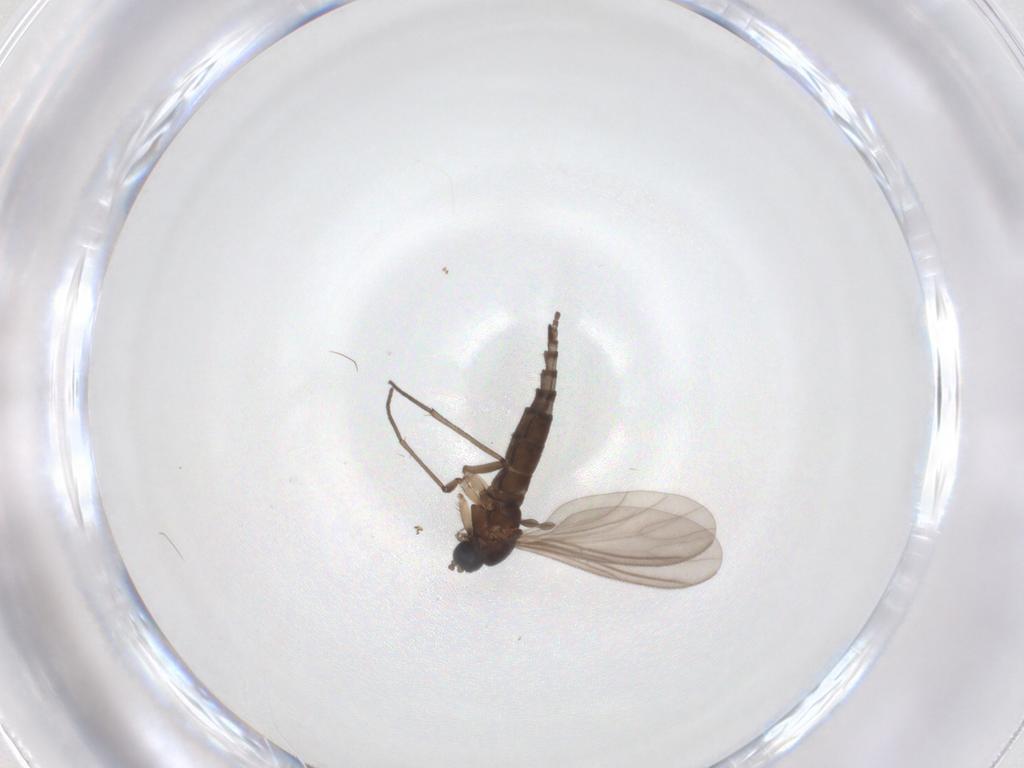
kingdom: Animalia
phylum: Arthropoda
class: Insecta
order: Diptera
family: Sciaridae
